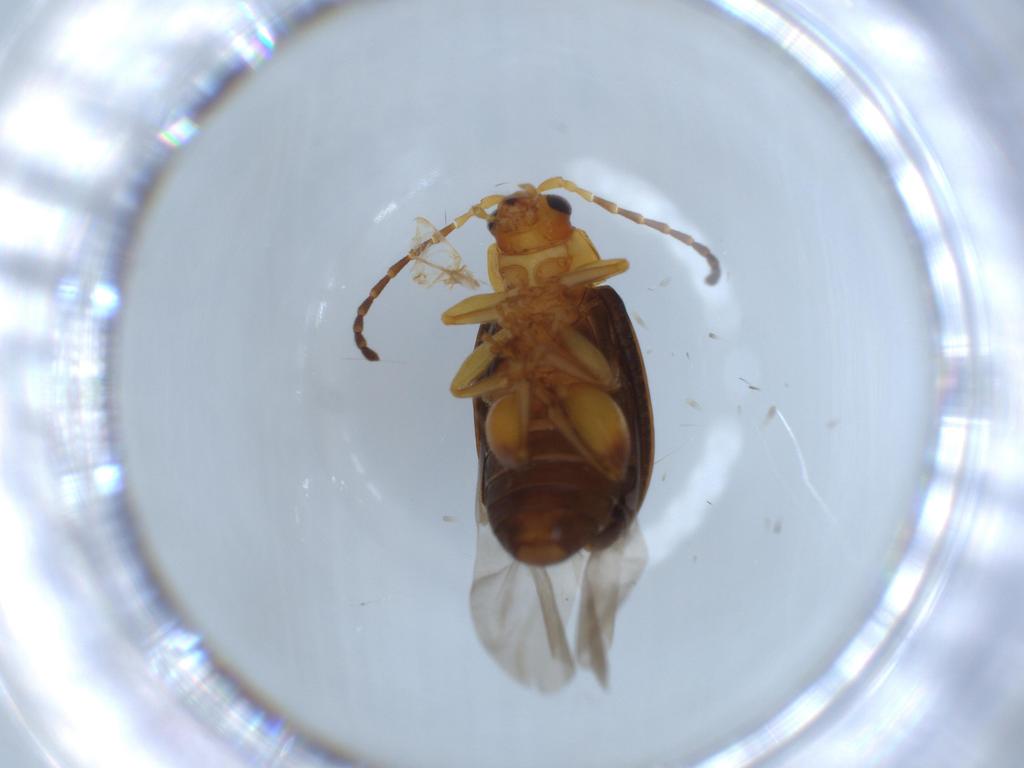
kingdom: Animalia
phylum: Arthropoda
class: Insecta
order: Coleoptera
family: Chrysomelidae
